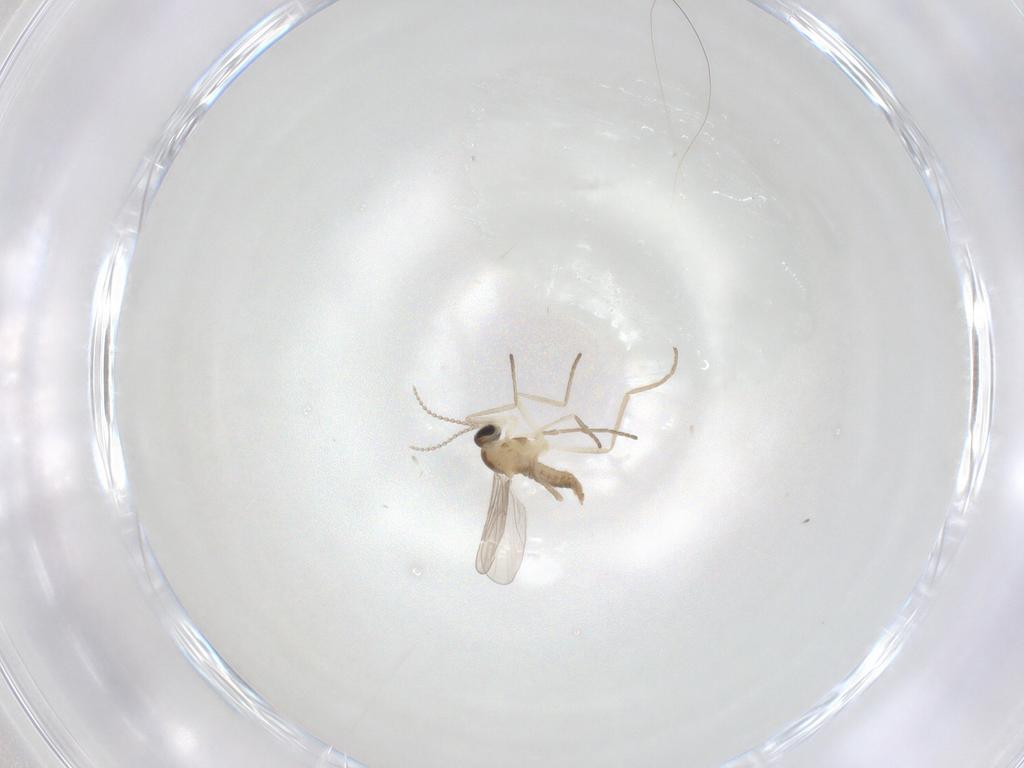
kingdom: Animalia
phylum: Arthropoda
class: Insecta
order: Diptera
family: Cecidomyiidae
